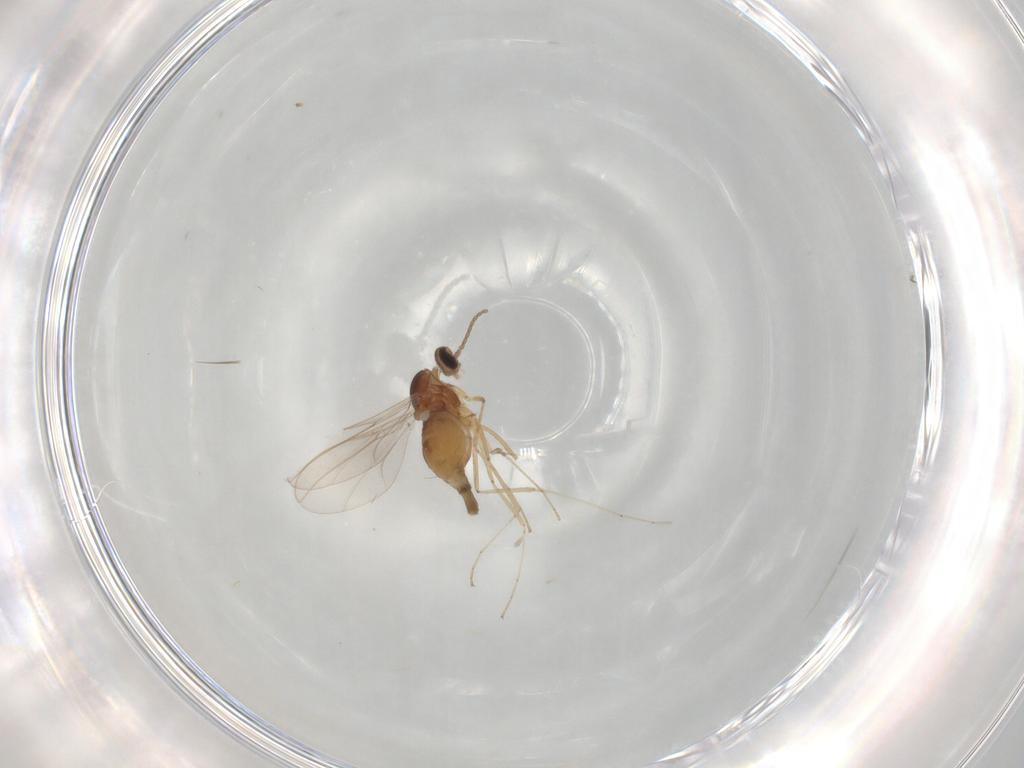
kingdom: Animalia
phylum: Arthropoda
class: Insecta
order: Diptera
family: Cecidomyiidae
